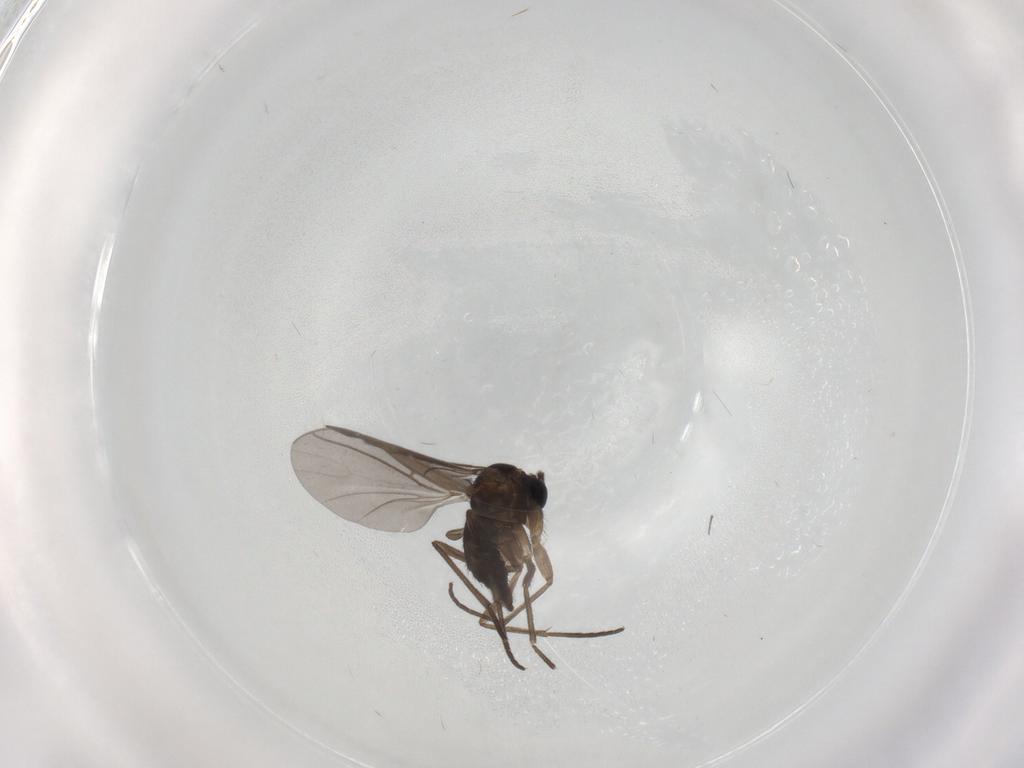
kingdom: Animalia
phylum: Arthropoda
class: Insecta
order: Diptera
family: Sciaridae
